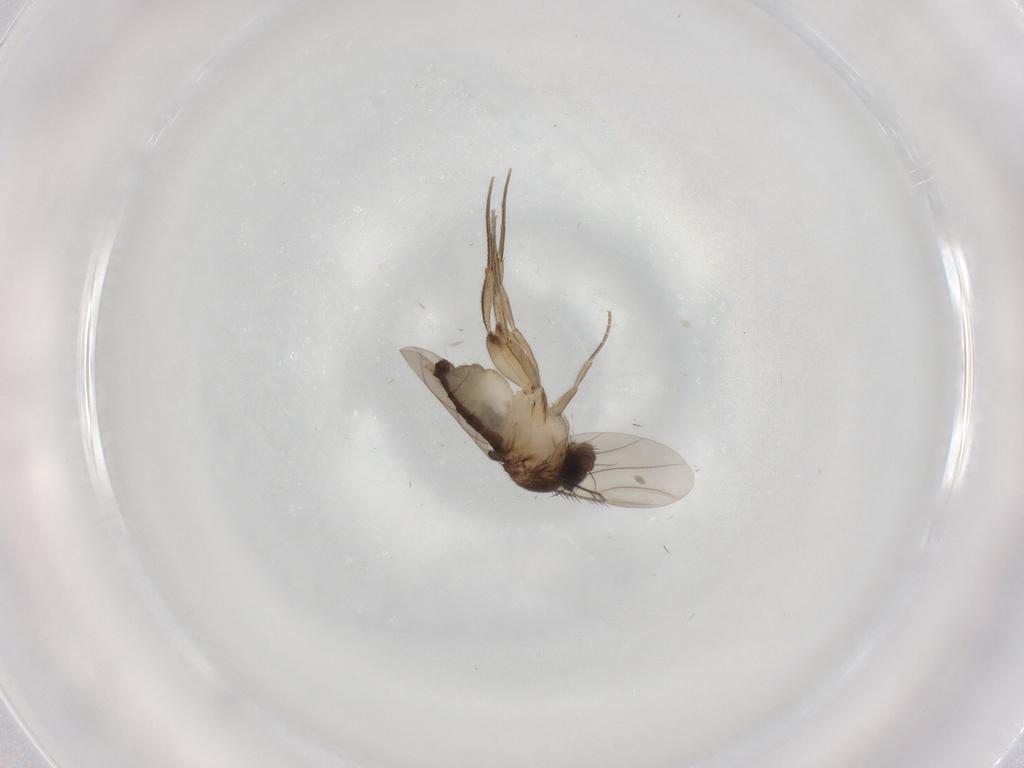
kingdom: Animalia
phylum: Arthropoda
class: Insecta
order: Diptera
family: Phoridae
